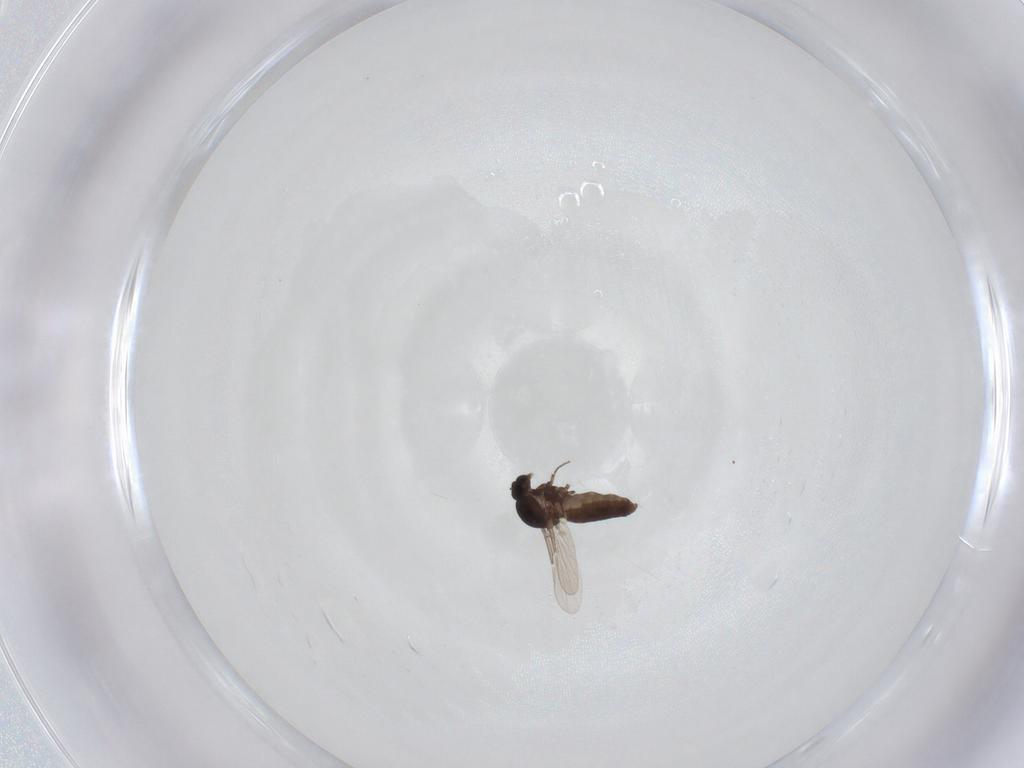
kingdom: Animalia
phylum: Arthropoda
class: Insecta
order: Diptera
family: Ceratopogonidae
